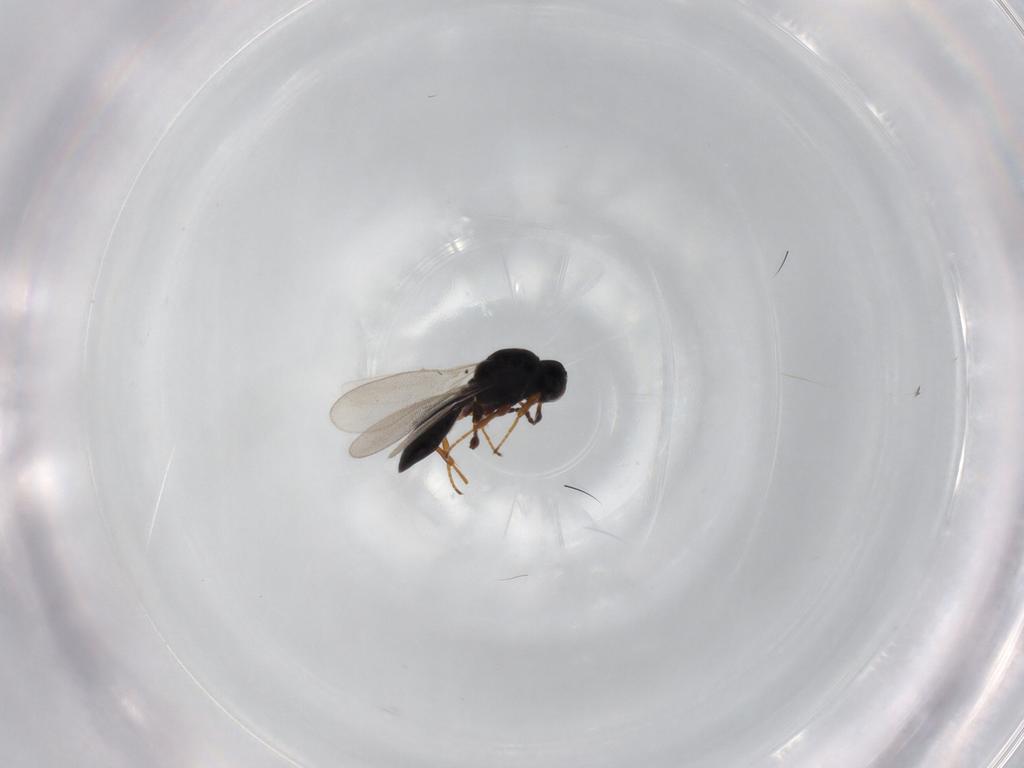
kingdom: Animalia
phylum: Arthropoda
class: Insecta
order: Hymenoptera
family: Platygastridae
